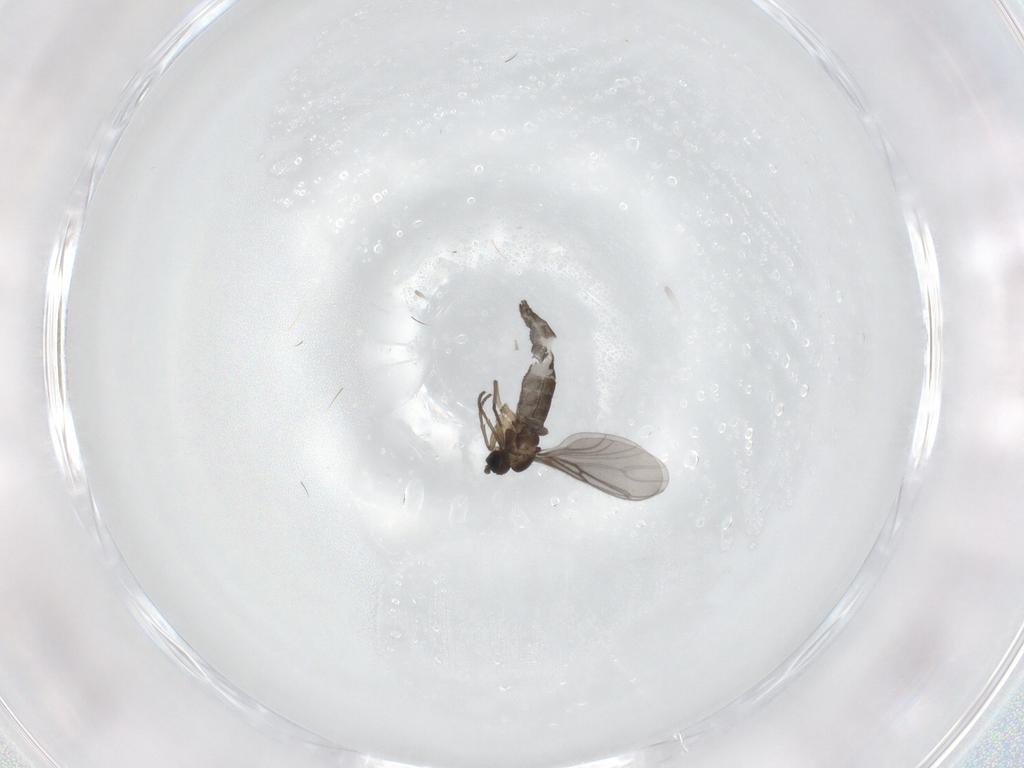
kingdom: Animalia
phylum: Arthropoda
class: Insecta
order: Diptera
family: Sciaridae
